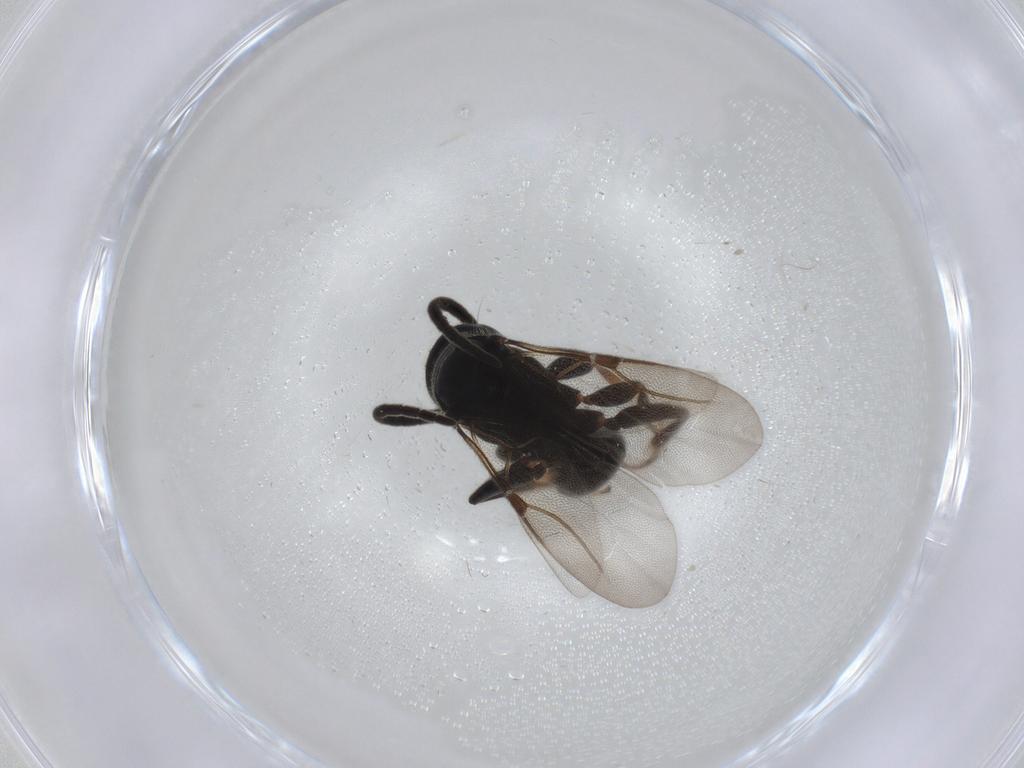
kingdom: Animalia
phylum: Arthropoda
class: Insecta
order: Hymenoptera
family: Bethylidae
